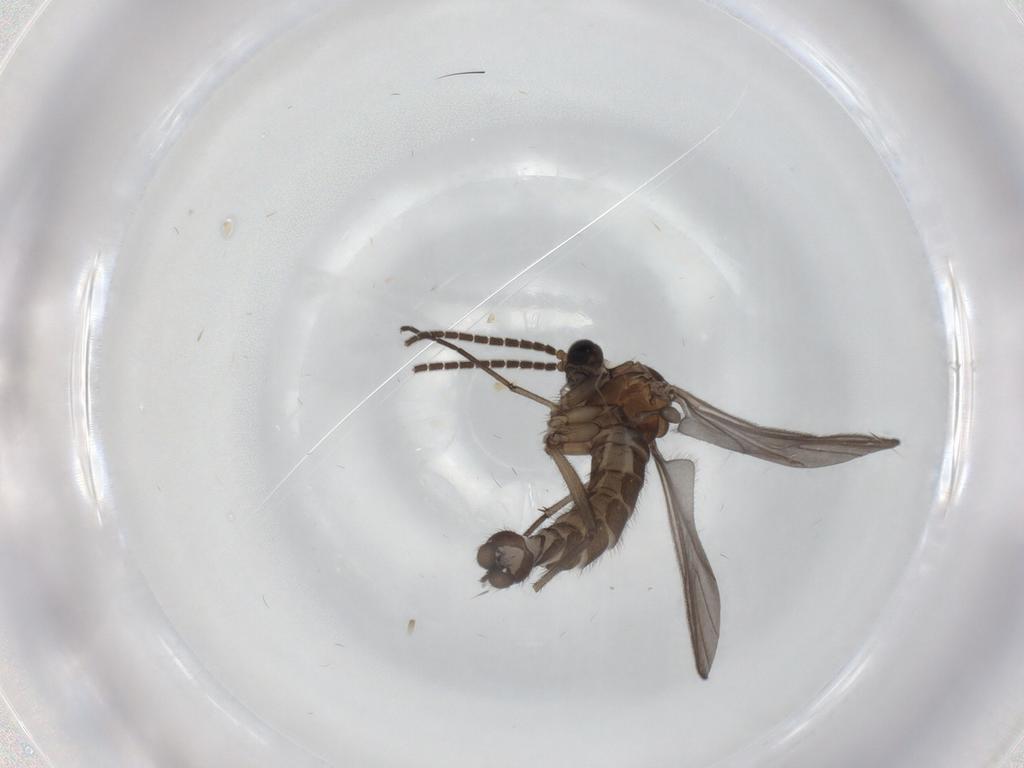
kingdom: Animalia
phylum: Arthropoda
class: Insecta
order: Diptera
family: Sciaridae
